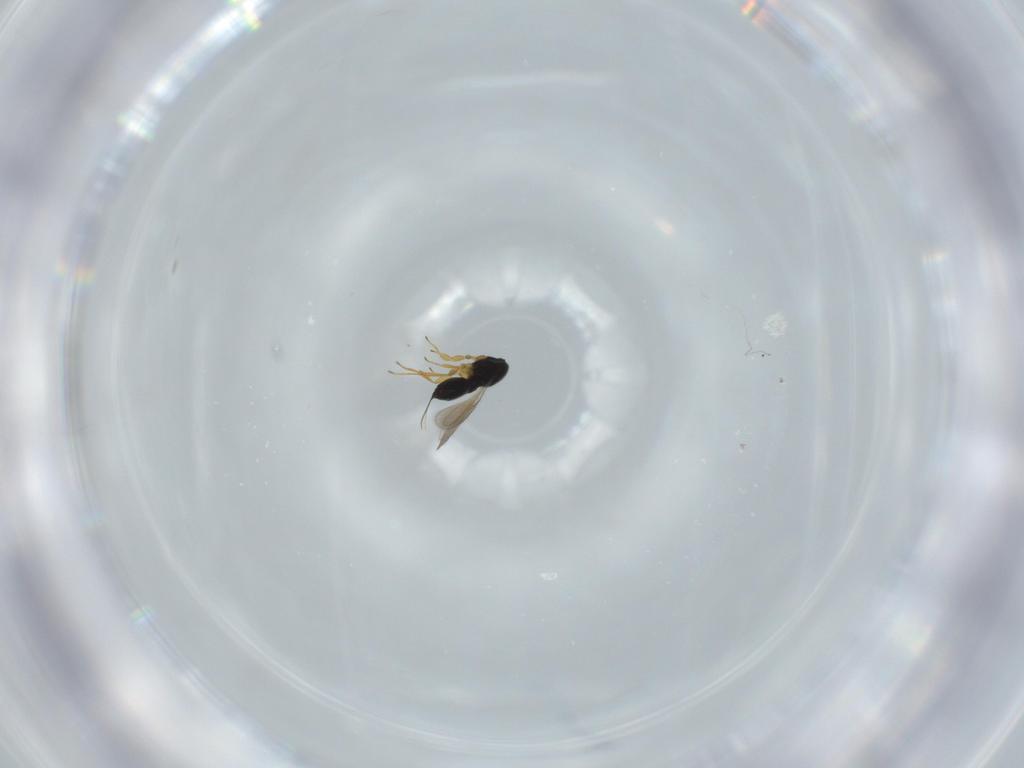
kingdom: Animalia
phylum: Arthropoda
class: Insecta
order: Hymenoptera
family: Scelionidae
